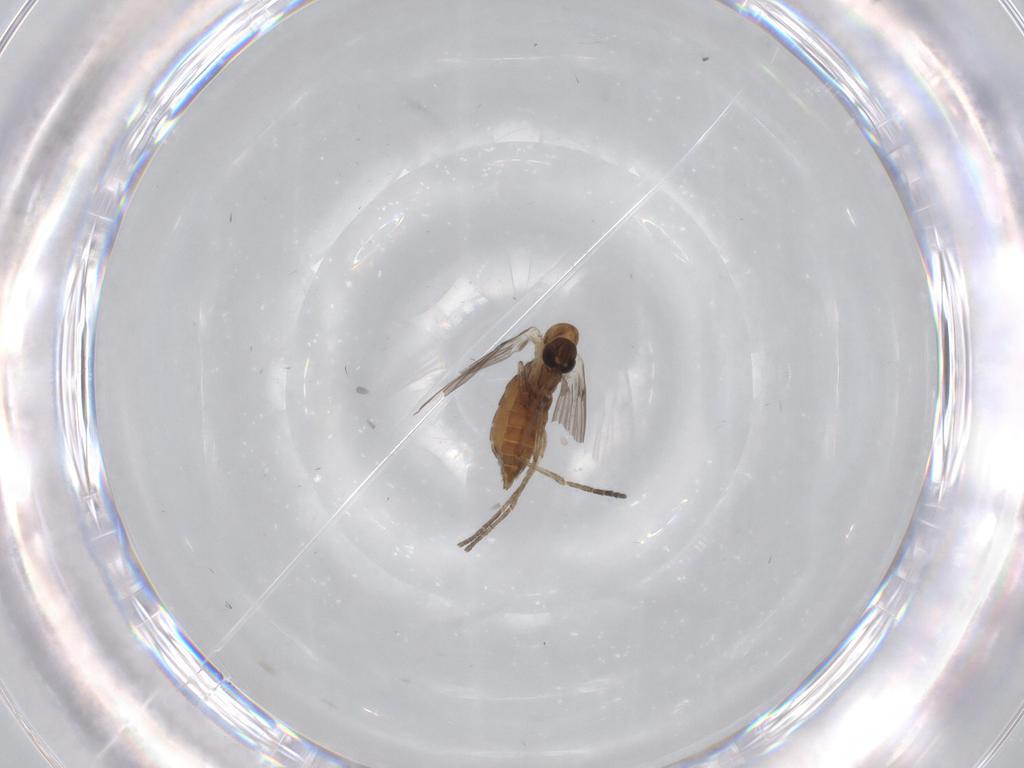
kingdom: Animalia
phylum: Arthropoda
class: Insecta
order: Diptera
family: Psychodidae
